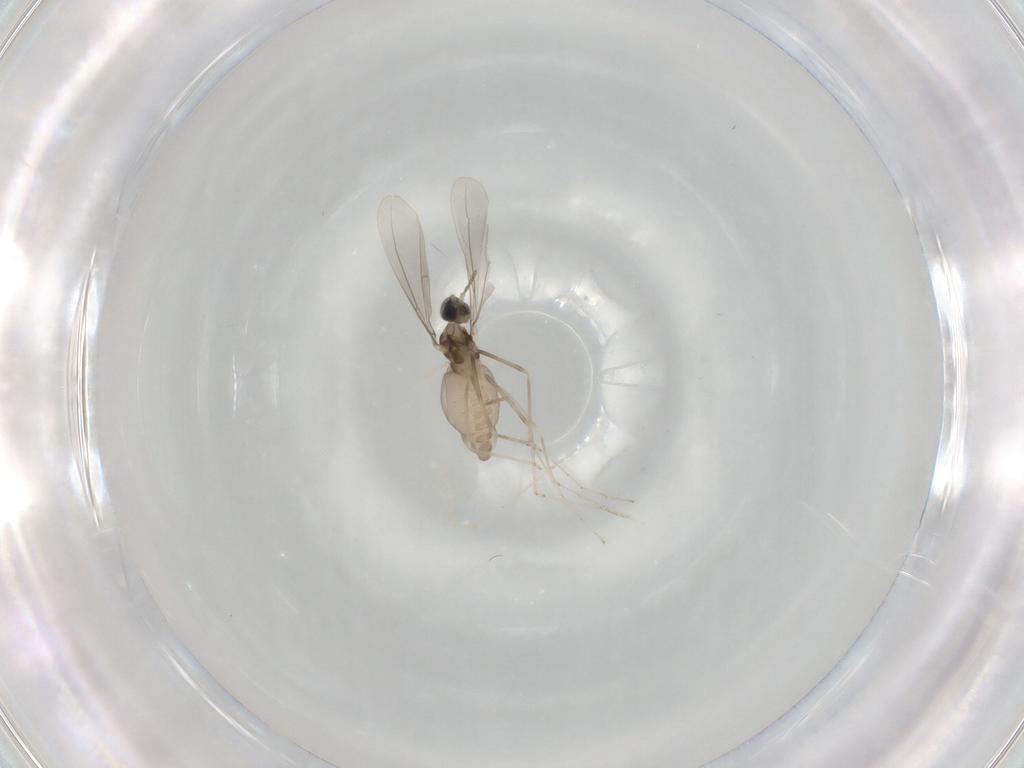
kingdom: Animalia
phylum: Arthropoda
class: Insecta
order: Diptera
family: Cecidomyiidae
